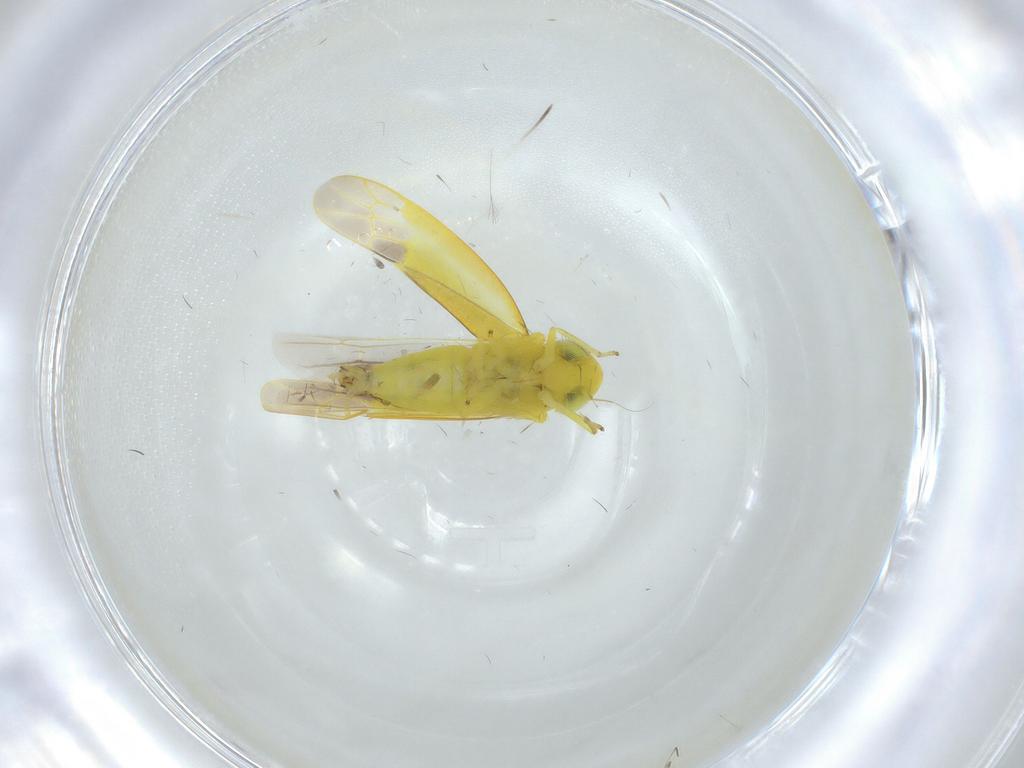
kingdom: Animalia
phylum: Arthropoda
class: Insecta
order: Hemiptera
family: Cicadellidae
